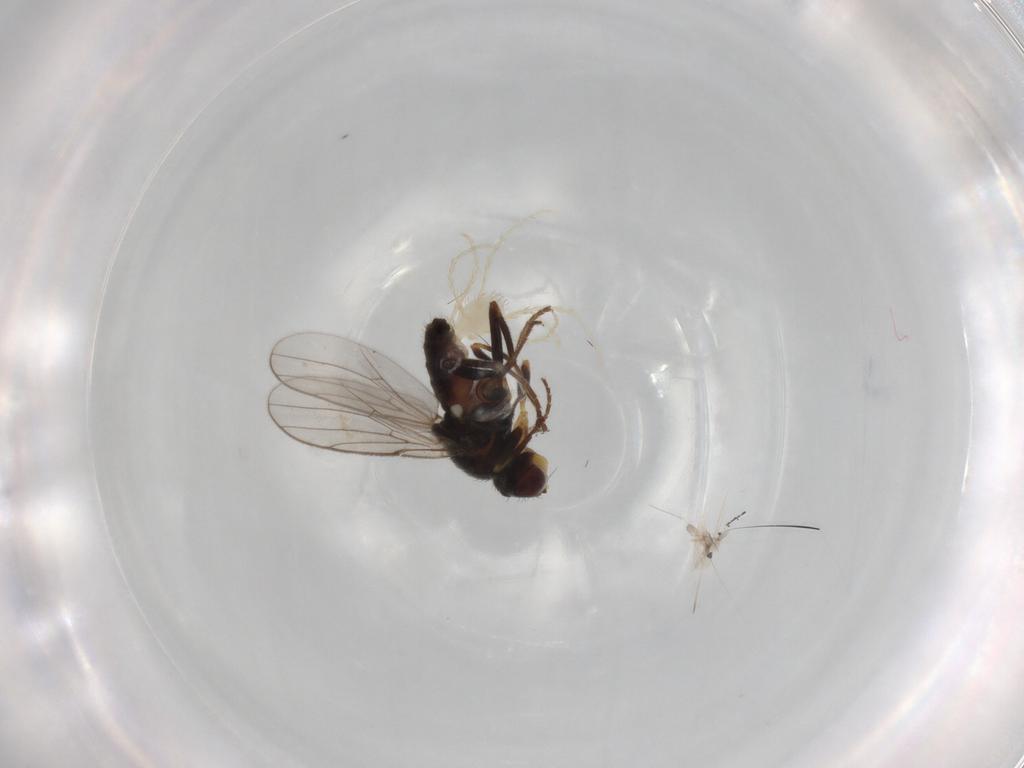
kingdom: Animalia
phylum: Arthropoda
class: Insecta
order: Diptera
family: Chloropidae
